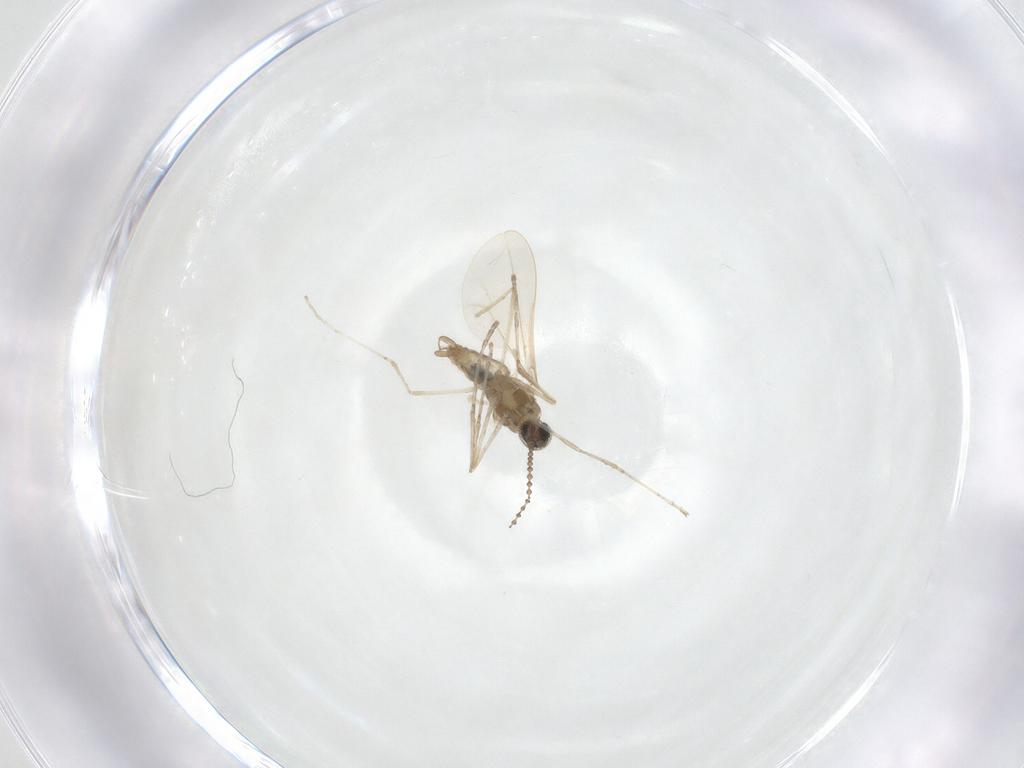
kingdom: Animalia
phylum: Arthropoda
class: Insecta
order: Diptera
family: Cecidomyiidae
